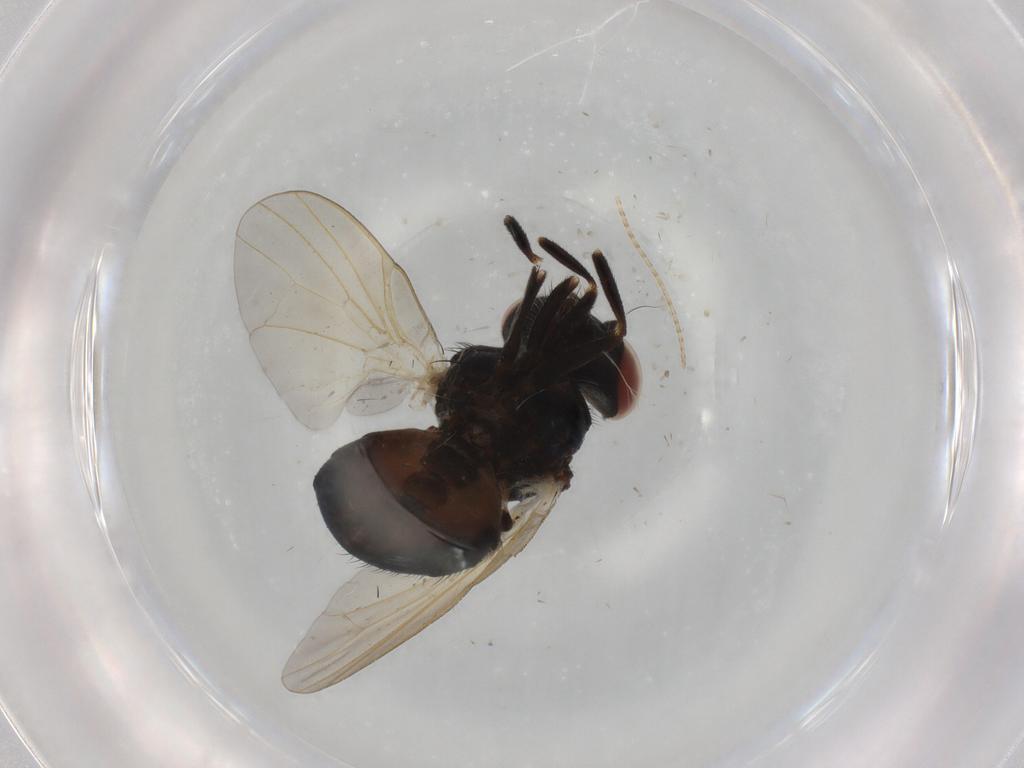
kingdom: Animalia
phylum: Arthropoda
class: Insecta
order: Diptera
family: Lonchaeidae
